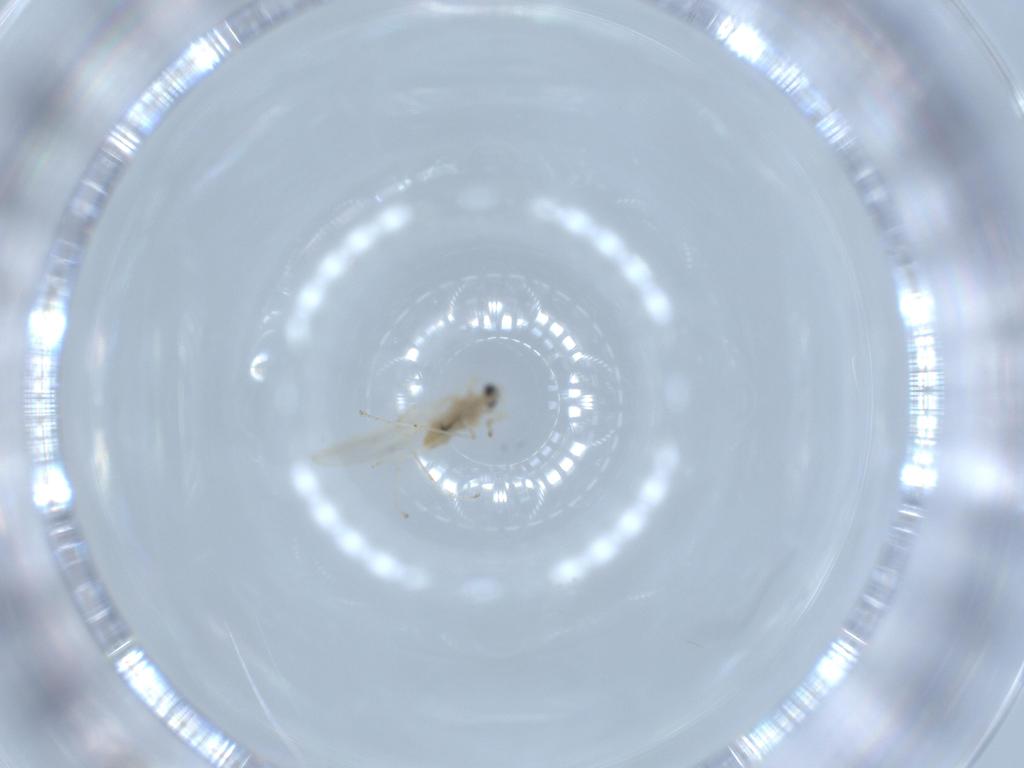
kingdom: Animalia
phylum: Arthropoda
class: Insecta
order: Diptera
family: Cecidomyiidae
